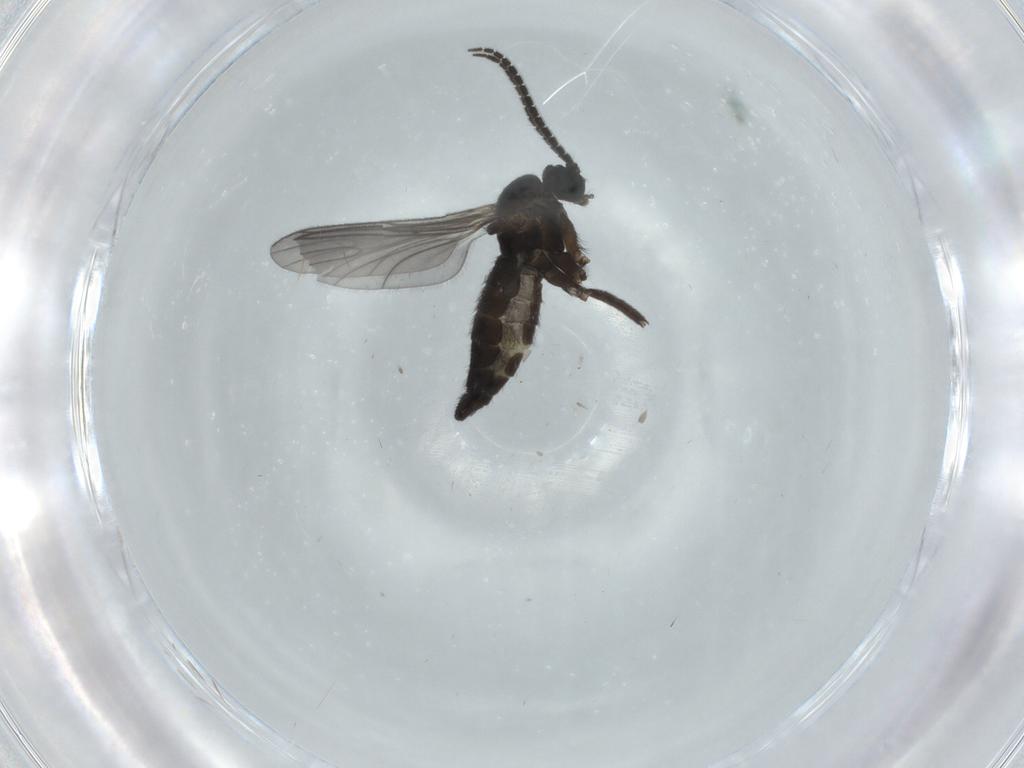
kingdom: Animalia
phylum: Arthropoda
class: Insecta
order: Diptera
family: Sciaridae
